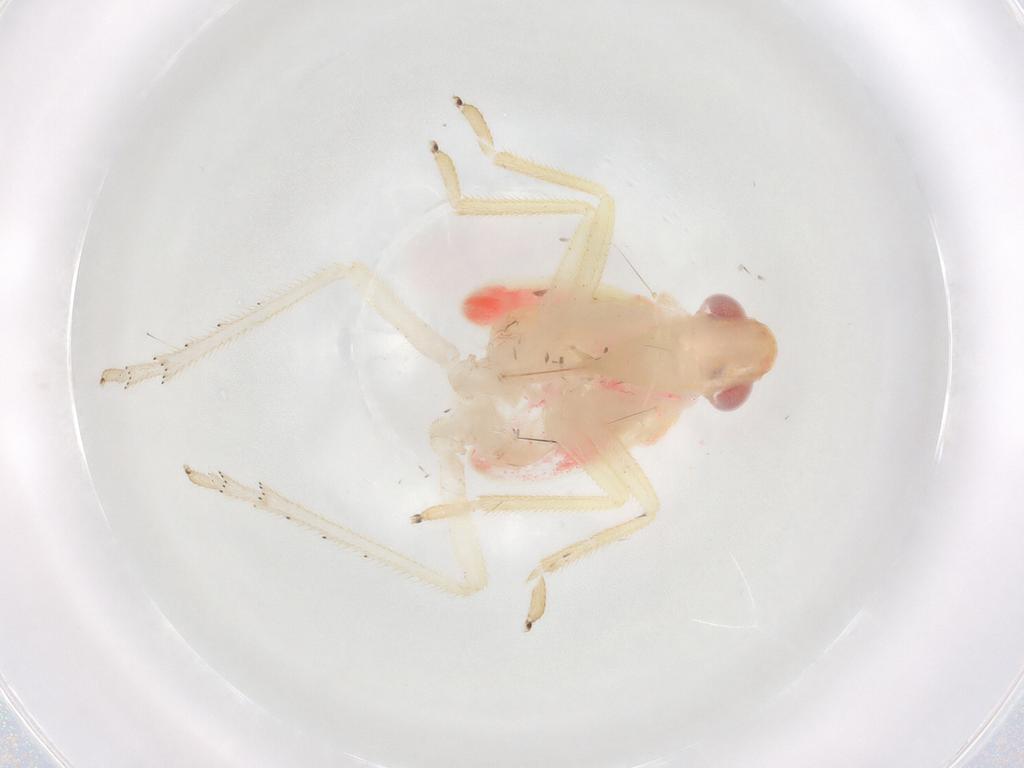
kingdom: Animalia
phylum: Arthropoda
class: Insecta
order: Hemiptera
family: Tropiduchidae
